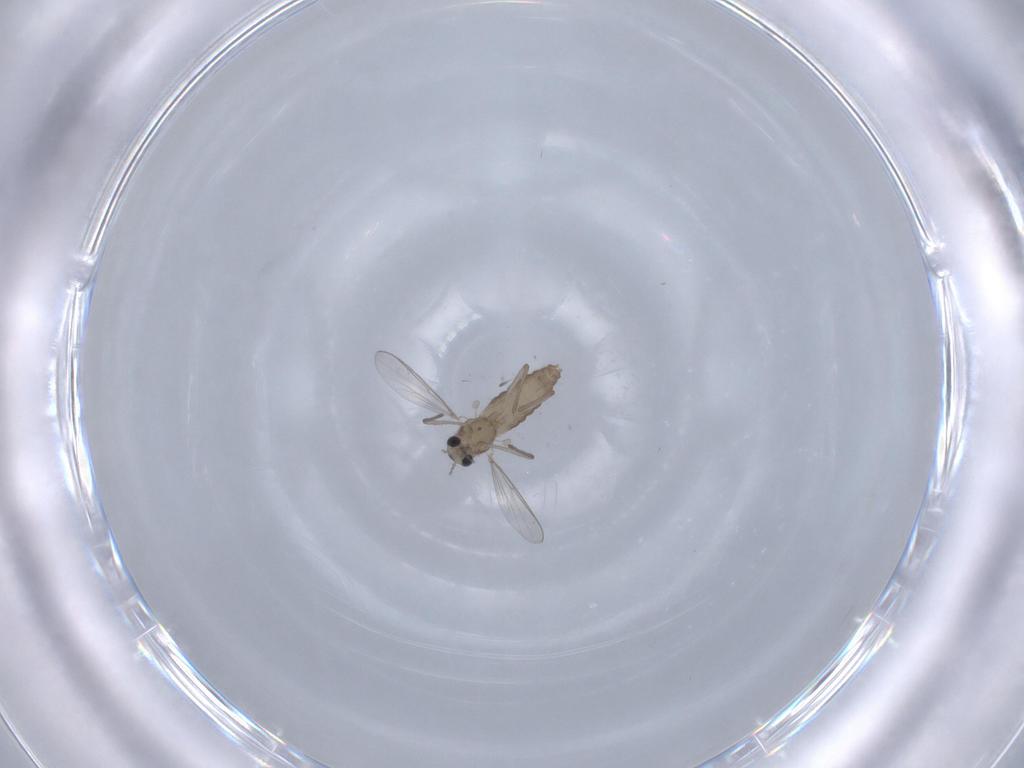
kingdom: Animalia
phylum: Arthropoda
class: Insecta
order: Diptera
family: Chironomidae
